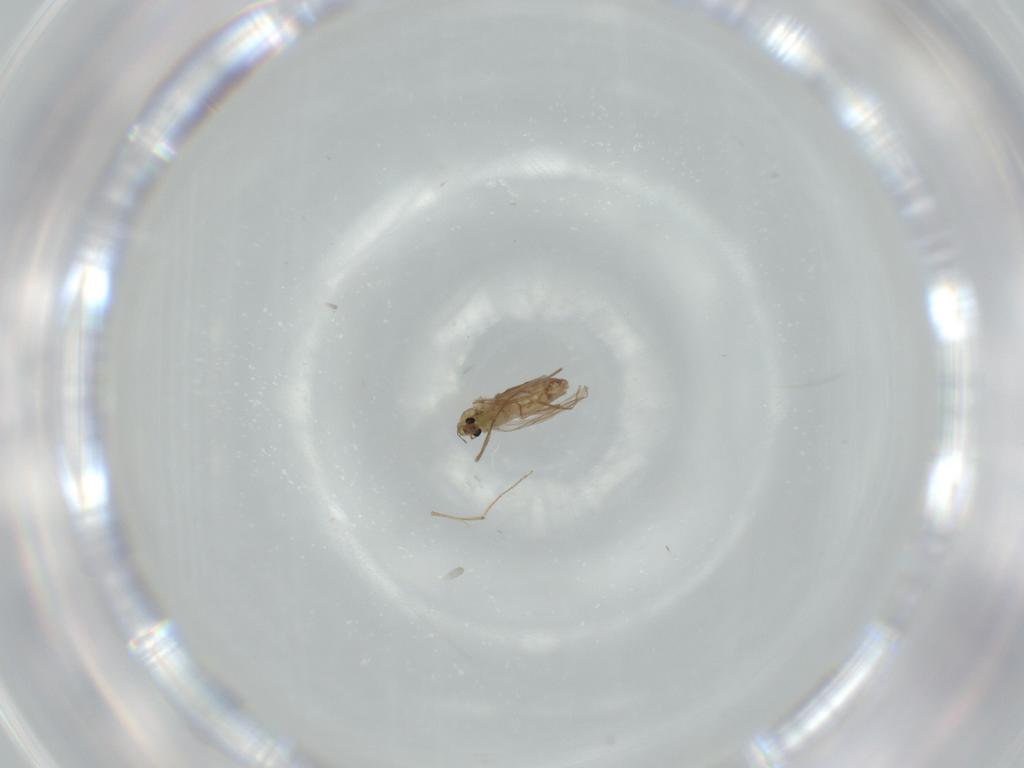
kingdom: Animalia
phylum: Arthropoda
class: Insecta
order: Diptera
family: Chironomidae
